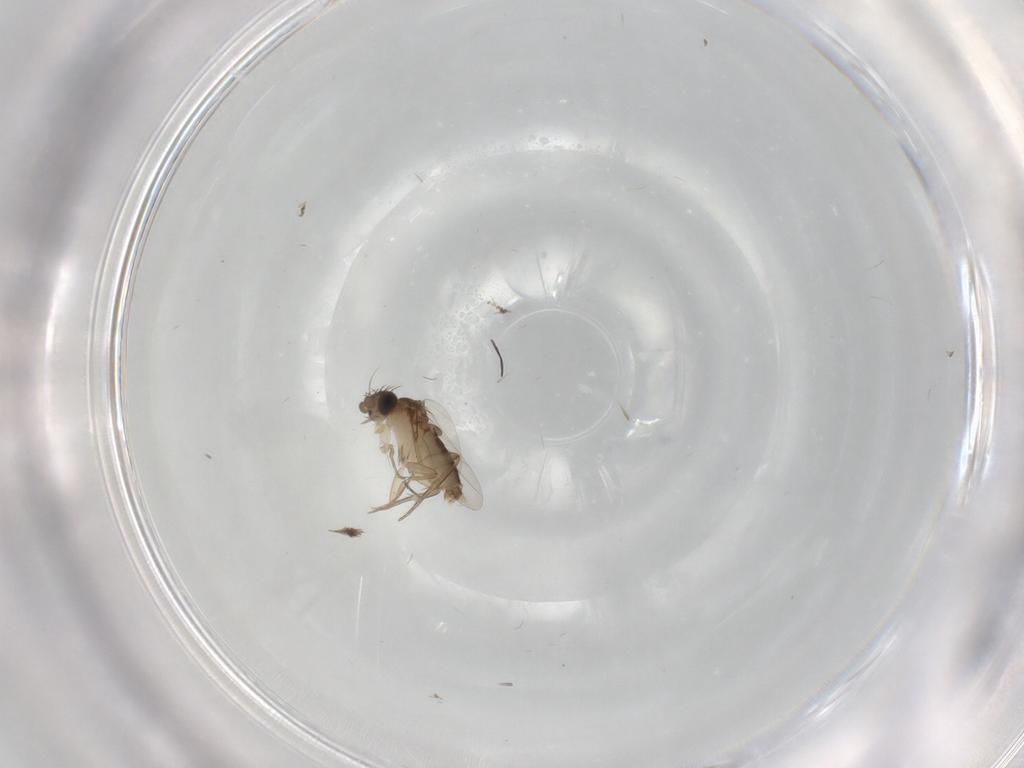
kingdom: Animalia
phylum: Arthropoda
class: Insecta
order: Diptera
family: Phoridae
